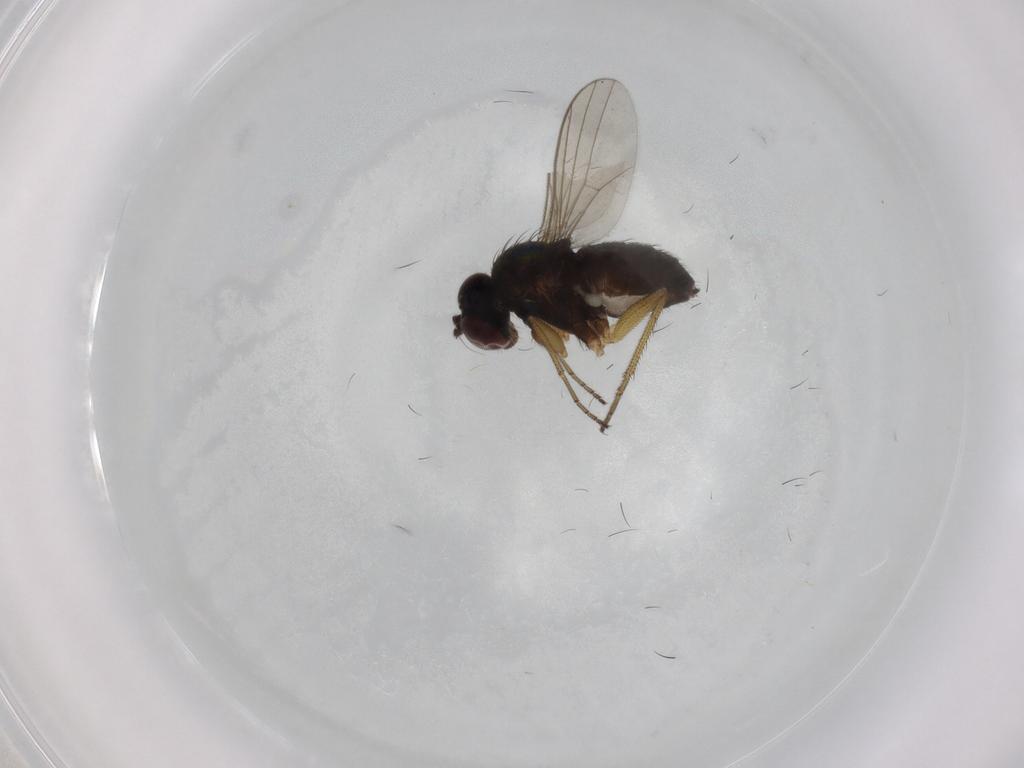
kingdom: Animalia
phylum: Arthropoda
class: Insecta
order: Diptera
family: Dolichopodidae
